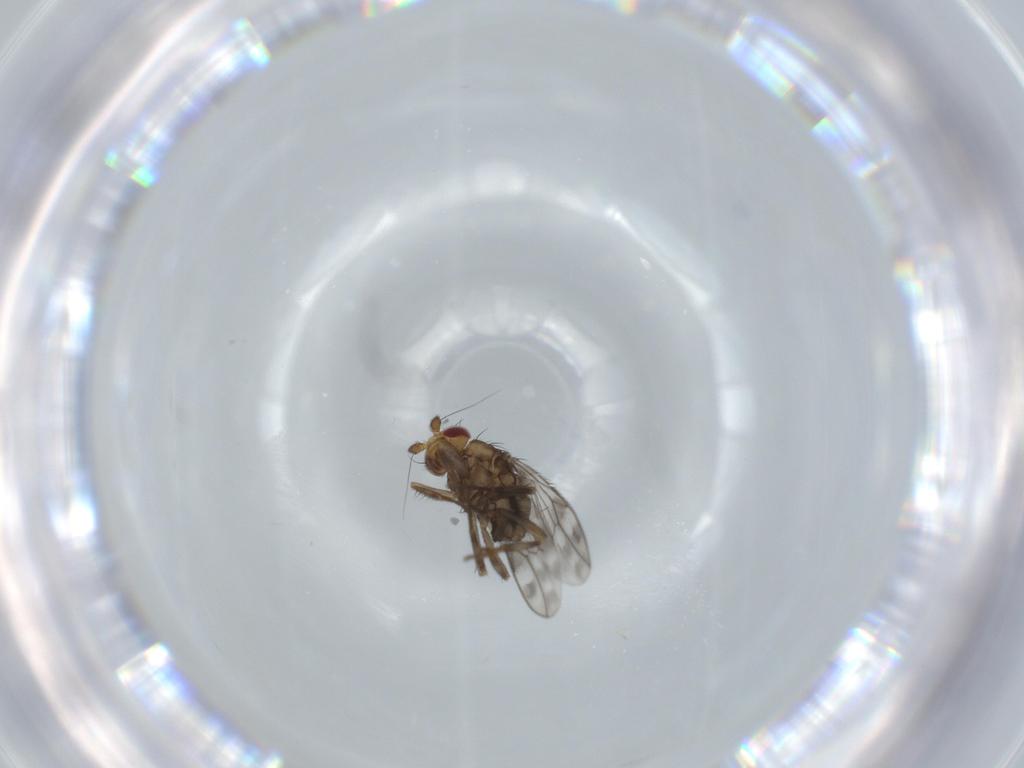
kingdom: Animalia
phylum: Arthropoda
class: Insecta
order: Diptera
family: Sphaeroceridae
